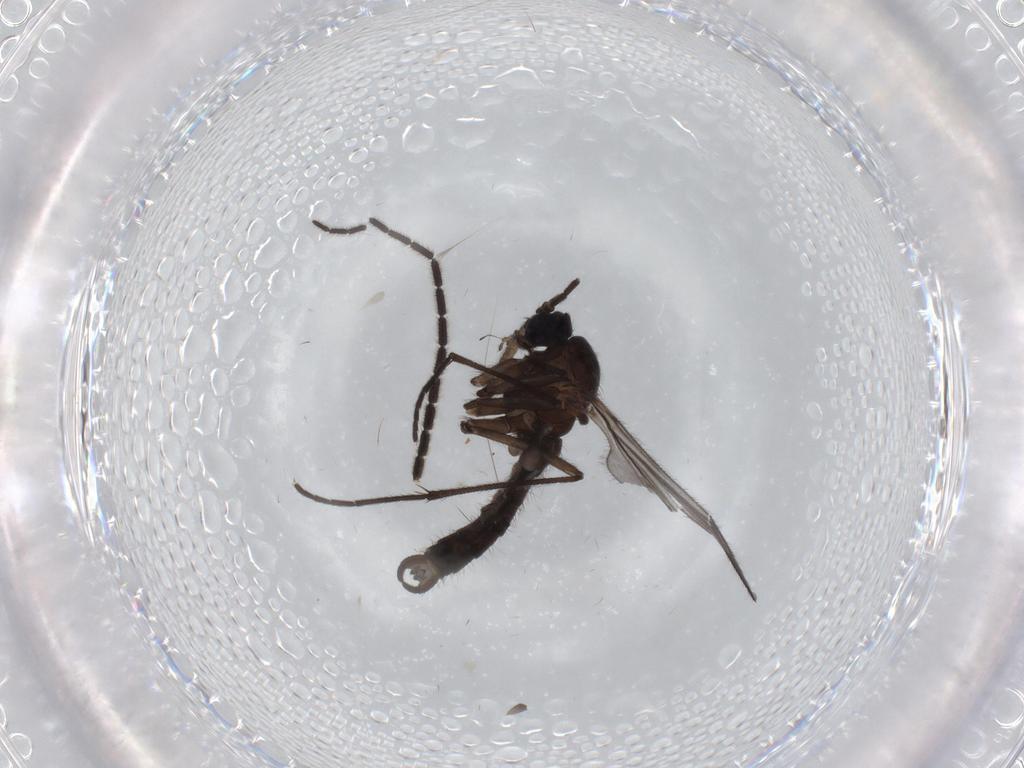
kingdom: Animalia
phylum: Arthropoda
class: Insecta
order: Diptera
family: Sciaridae
